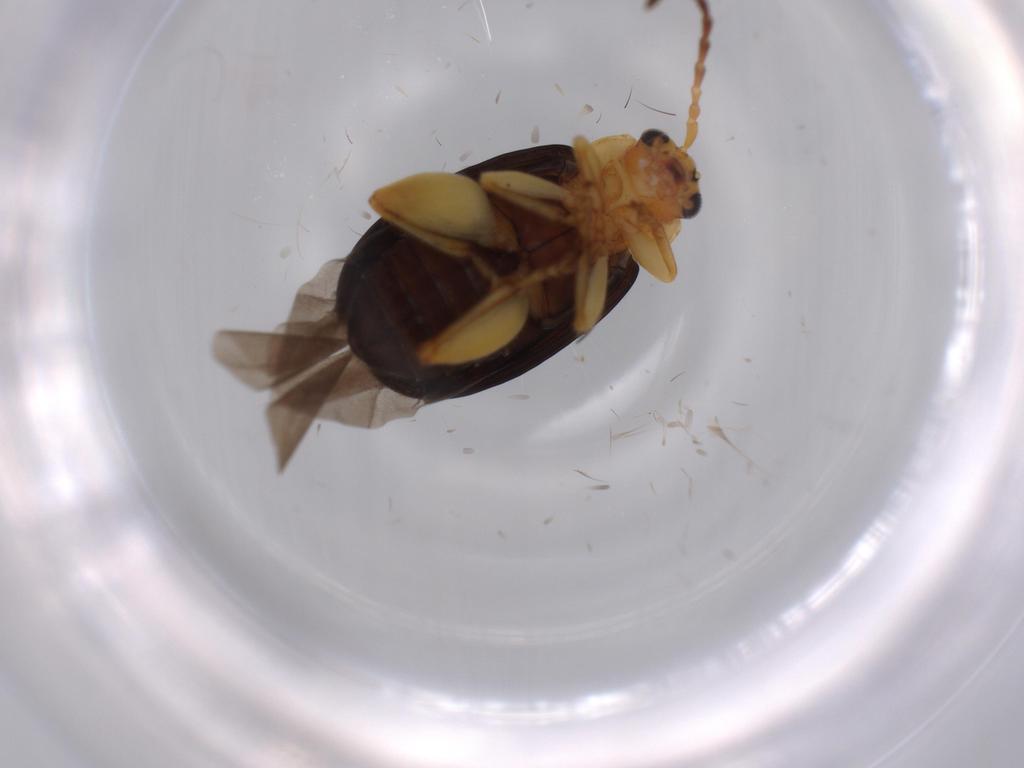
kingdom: Animalia
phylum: Arthropoda
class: Insecta
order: Coleoptera
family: Chrysomelidae
